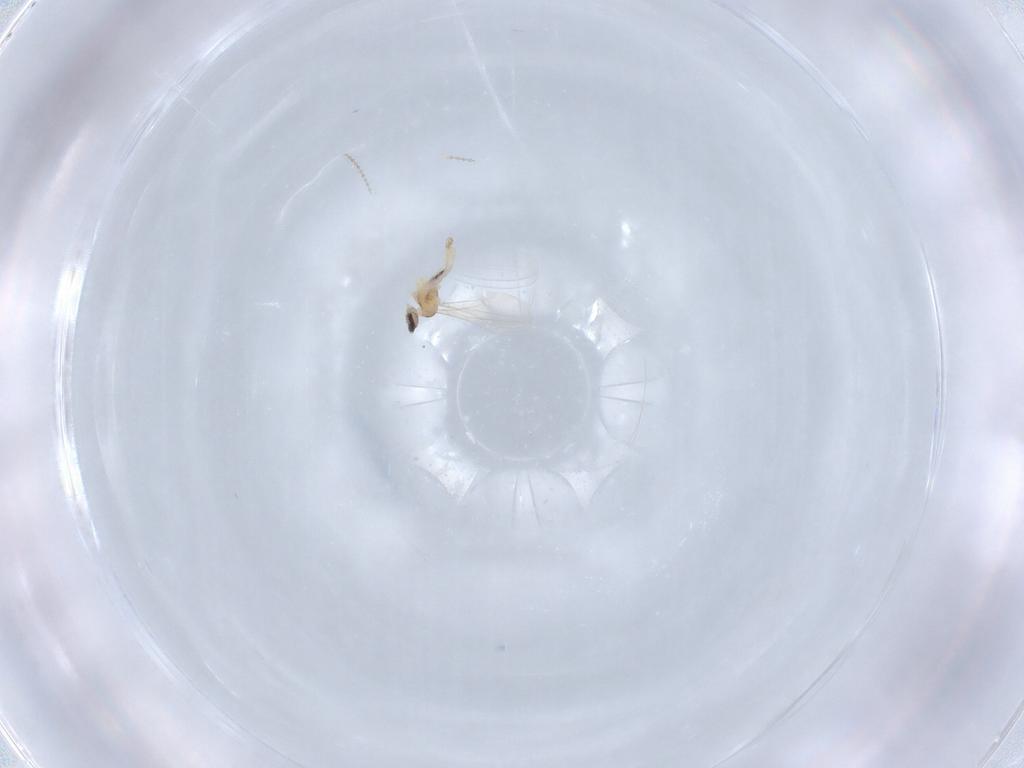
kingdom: Animalia
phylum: Arthropoda
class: Insecta
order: Diptera
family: Cecidomyiidae
